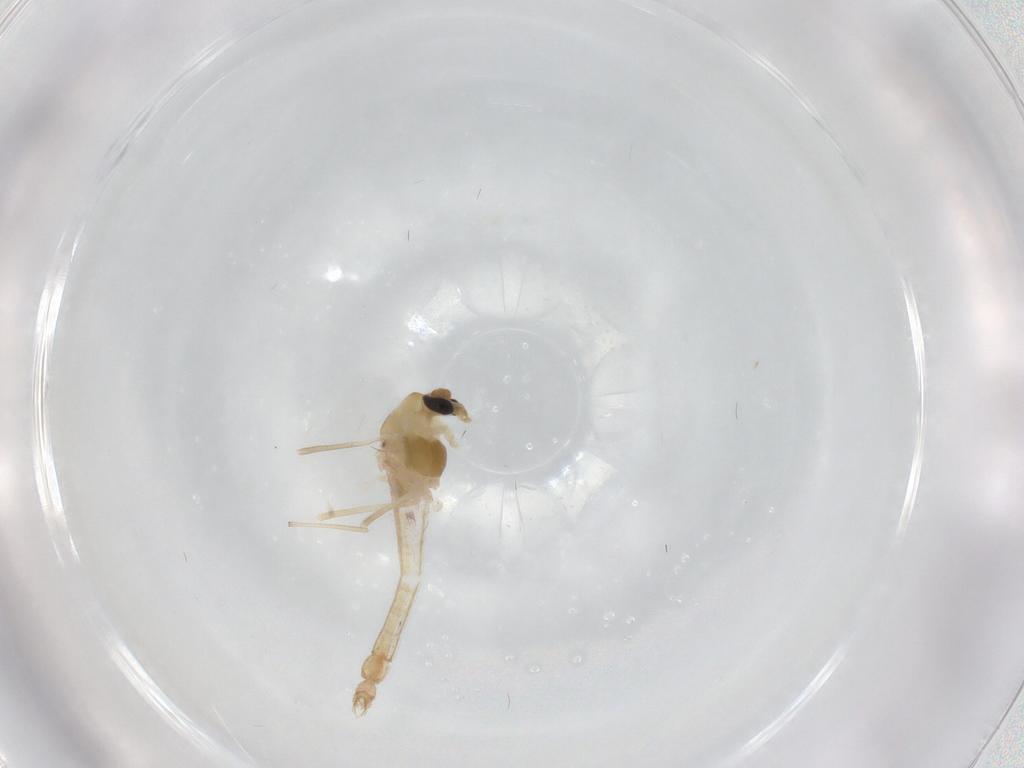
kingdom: Animalia
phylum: Arthropoda
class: Insecta
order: Diptera
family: Chironomidae
